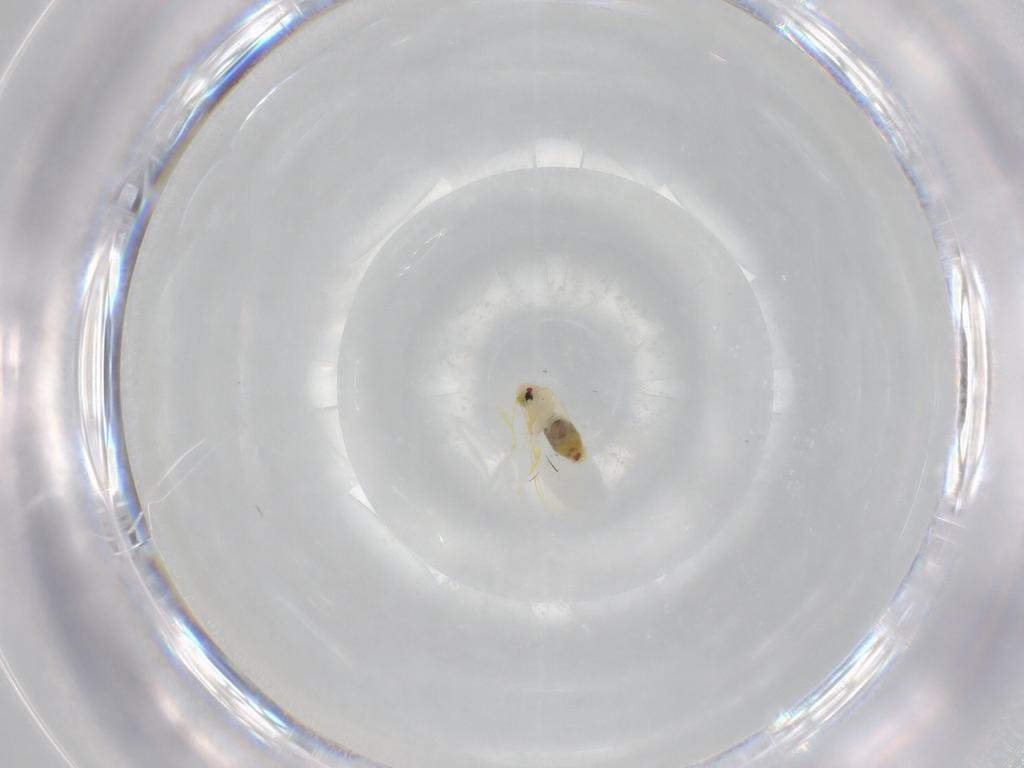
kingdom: Animalia
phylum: Arthropoda
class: Insecta
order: Hemiptera
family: Aleyrodidae
